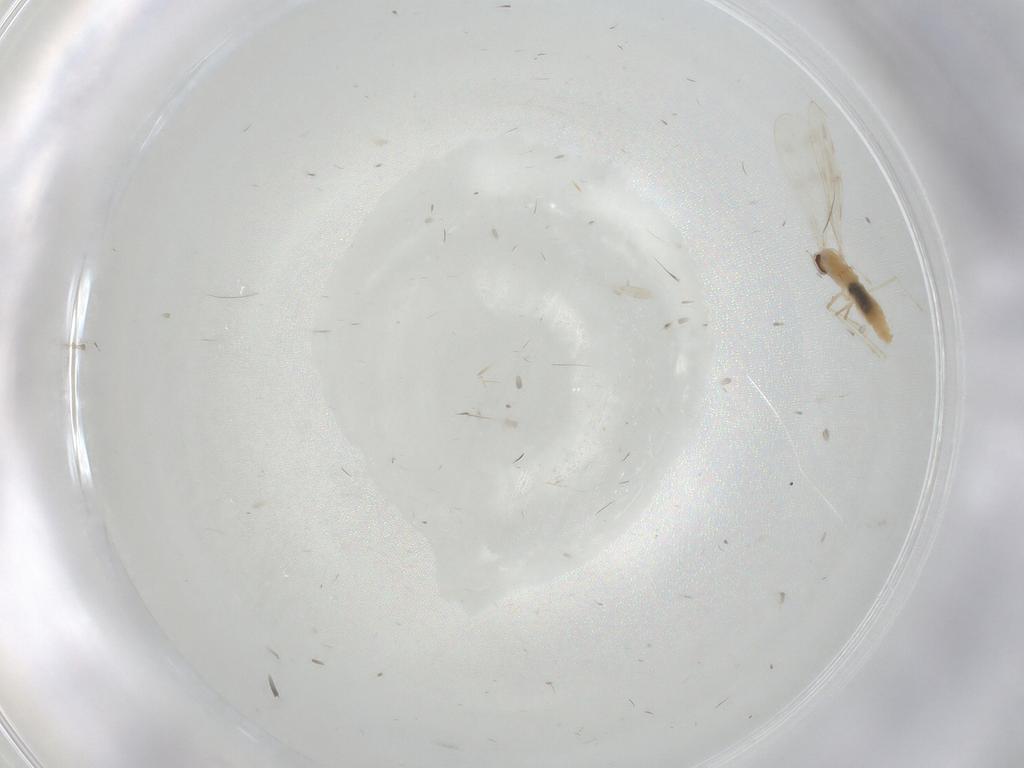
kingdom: Animalia
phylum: Arthropoda
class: Insecta
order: Diptera
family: Cecidomyiidae
